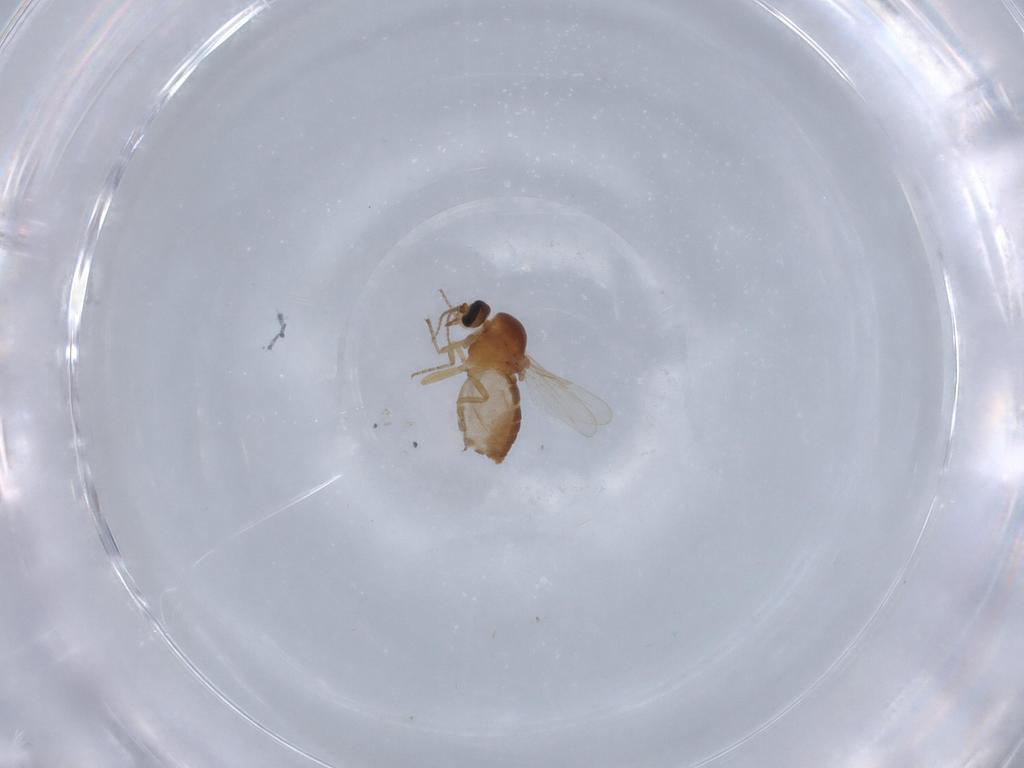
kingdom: Animalia
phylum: Arthropoda
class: Insecta
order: Diptera
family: Ceratopogonidae
